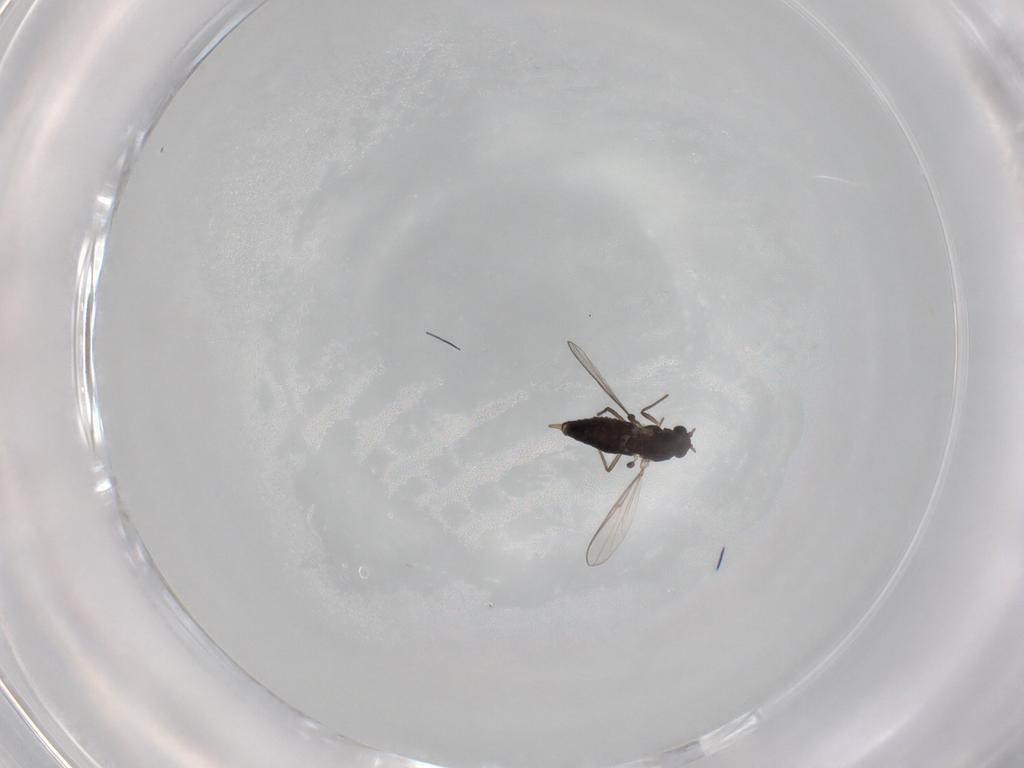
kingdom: Animalia
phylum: Arthropoda
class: Insecta
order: Diptera
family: Chironomidae
